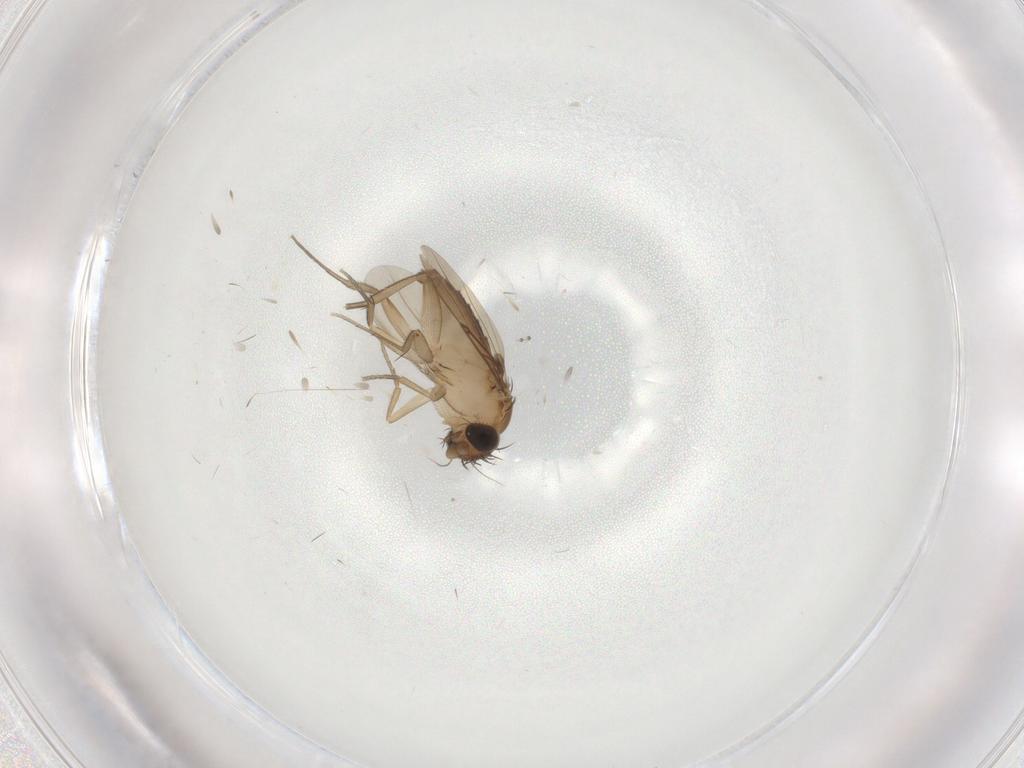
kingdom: Animalia
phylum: Arthropoda
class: Insecta
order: Diptera
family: Phoridae
